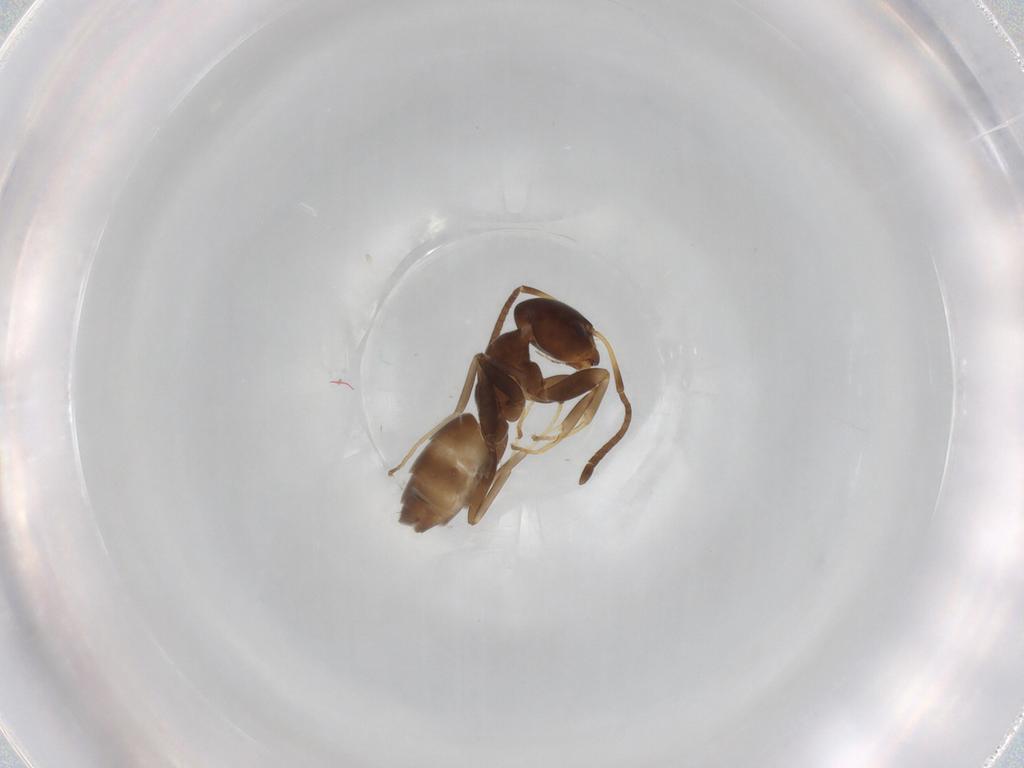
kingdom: Animalia
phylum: Arthropoda
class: Insecta
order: Hymenoptera
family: Formicidae
